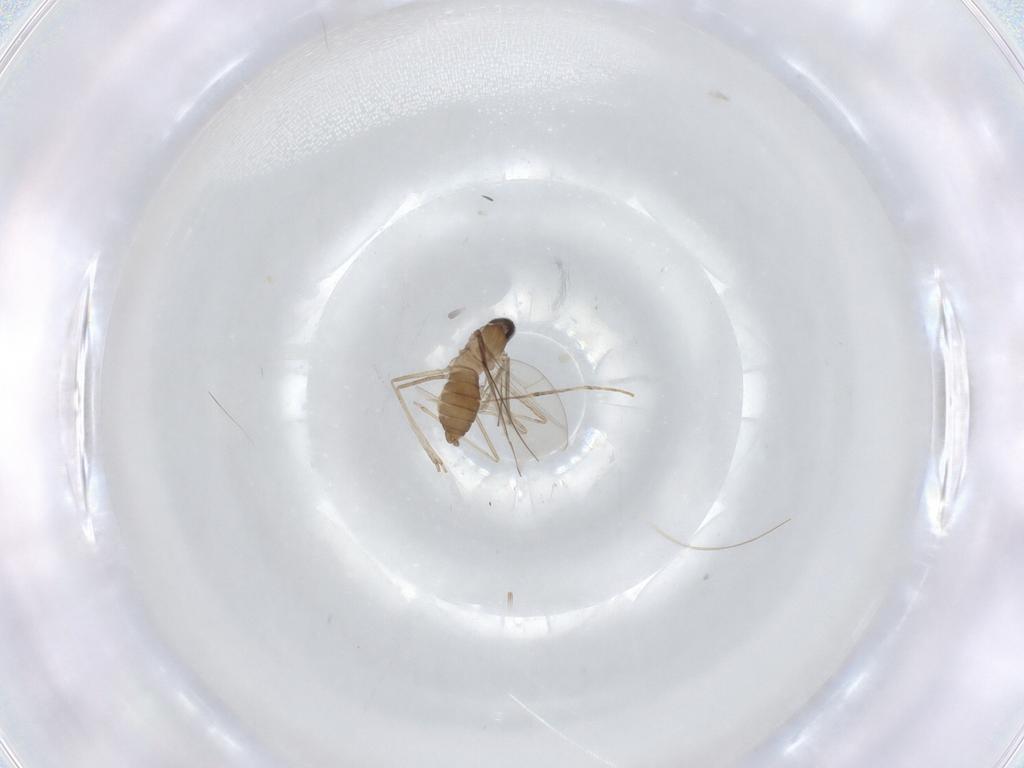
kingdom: Animalia
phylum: Arthropoda
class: Insecta
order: Diptera
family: Cecidomyiidae
